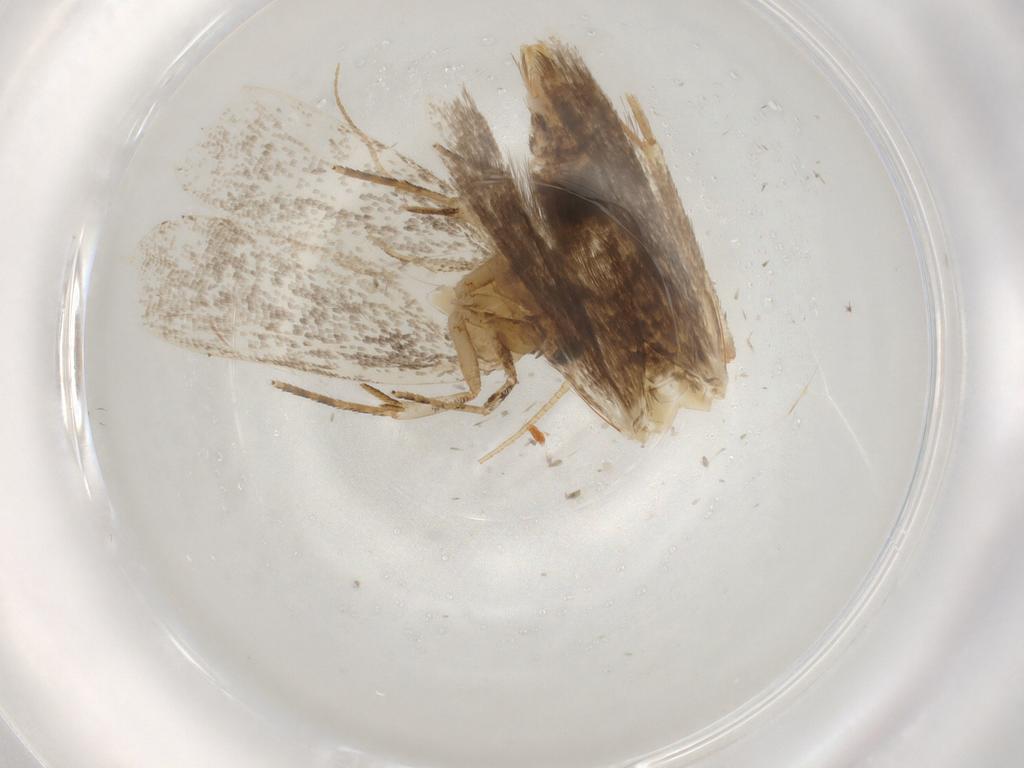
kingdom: Animalia
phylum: Arthropoda
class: Insecta
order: Lepidoptera
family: Gelechiidae
